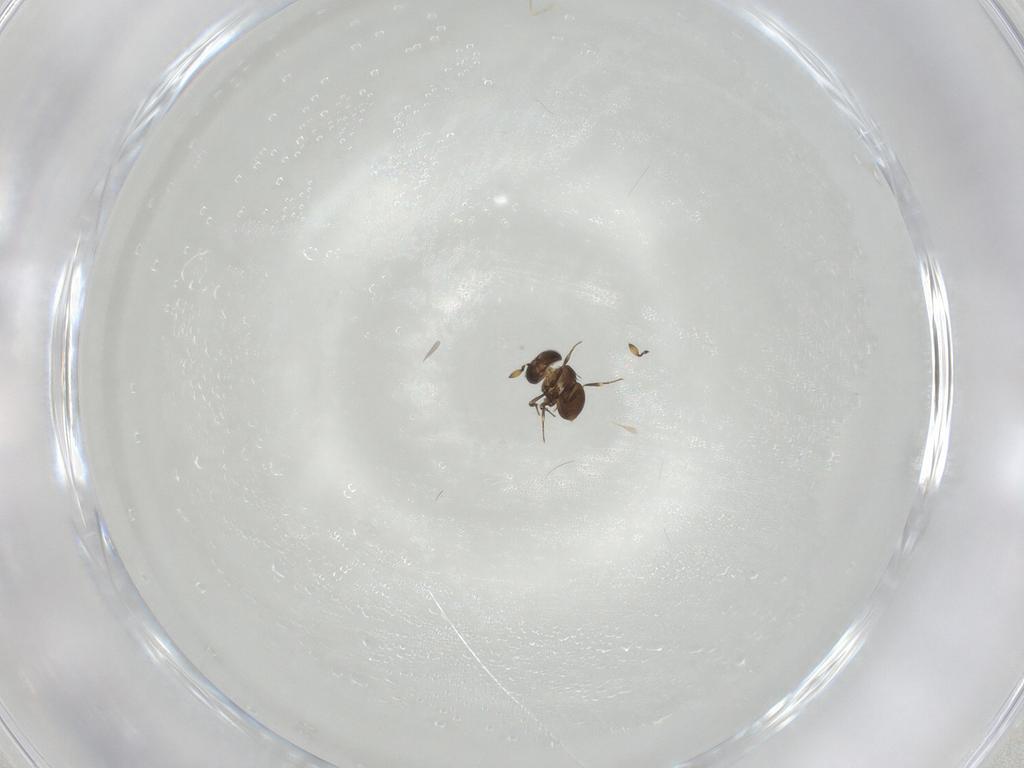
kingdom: Animalia
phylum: Arthropoda
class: Insecta
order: Hymenoptera
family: Scelionidae
